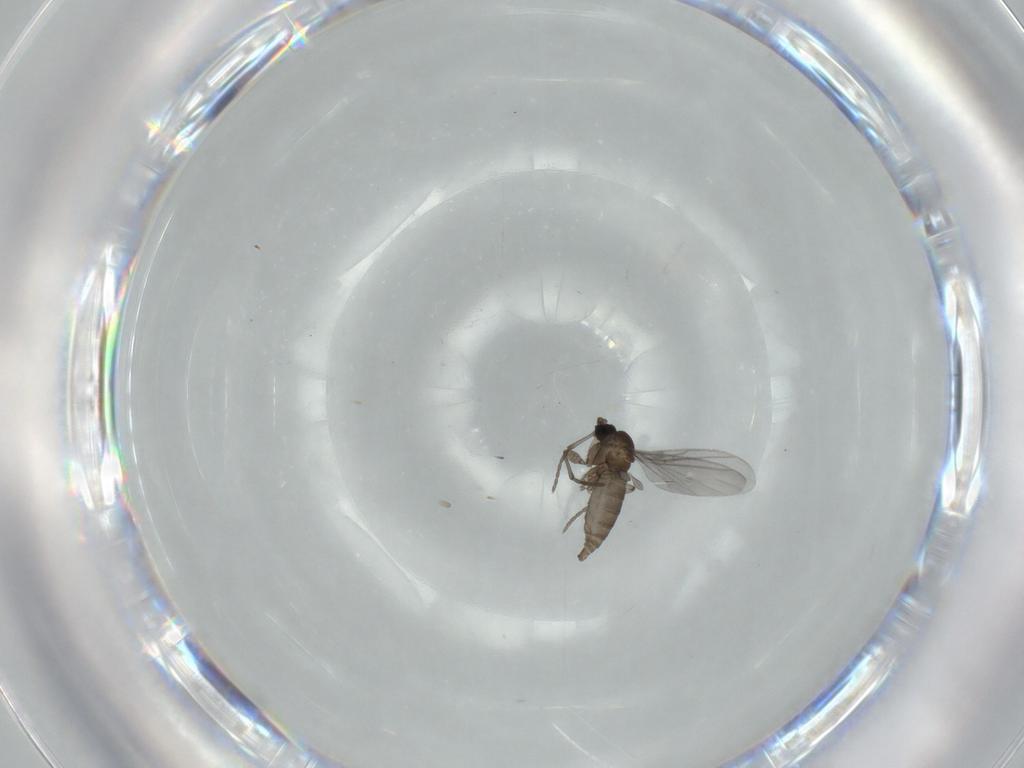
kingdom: Animalia
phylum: Arthropoda
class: Insecta
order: Diptera
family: Sciaridae
